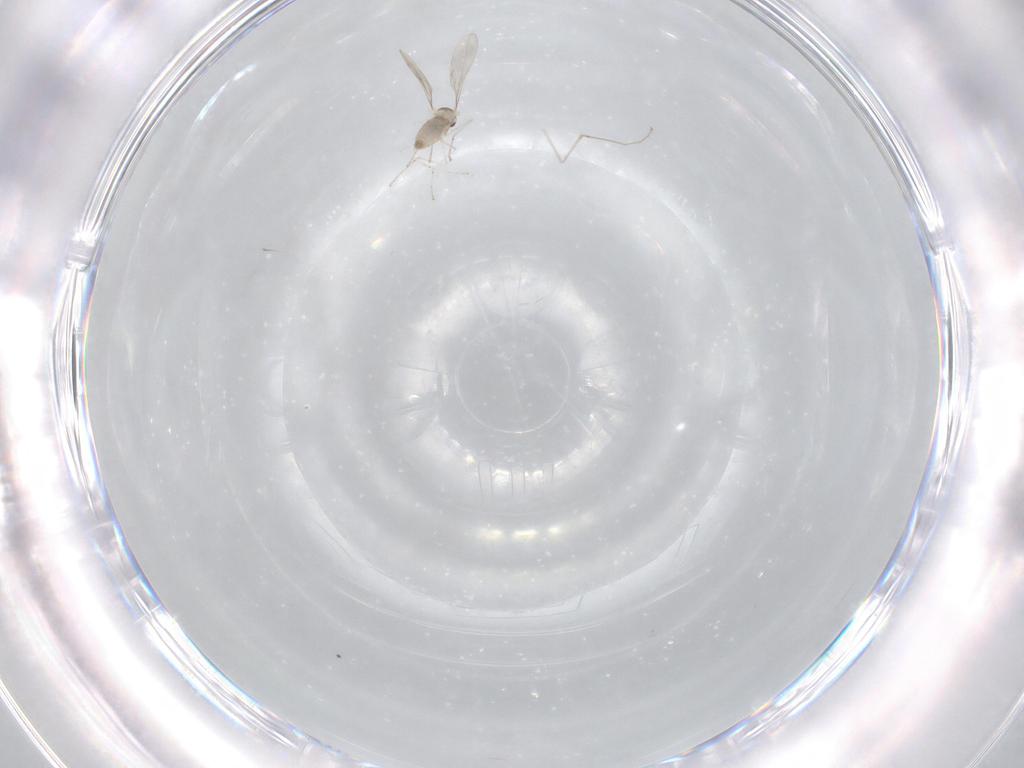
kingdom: Animalia
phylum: Arthropoda
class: Insecta
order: Diptera
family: Cecidomyiidae
